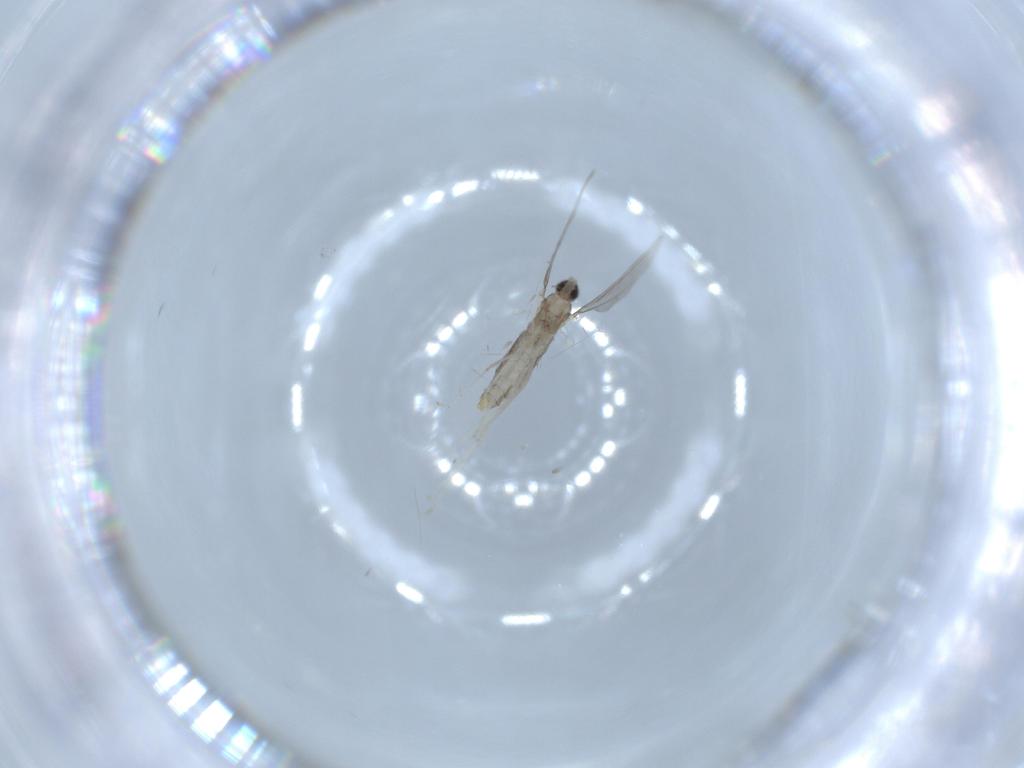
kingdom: Animalia
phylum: Arthropoda
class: Insecta
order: Diptera
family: Cecidomyiidae
